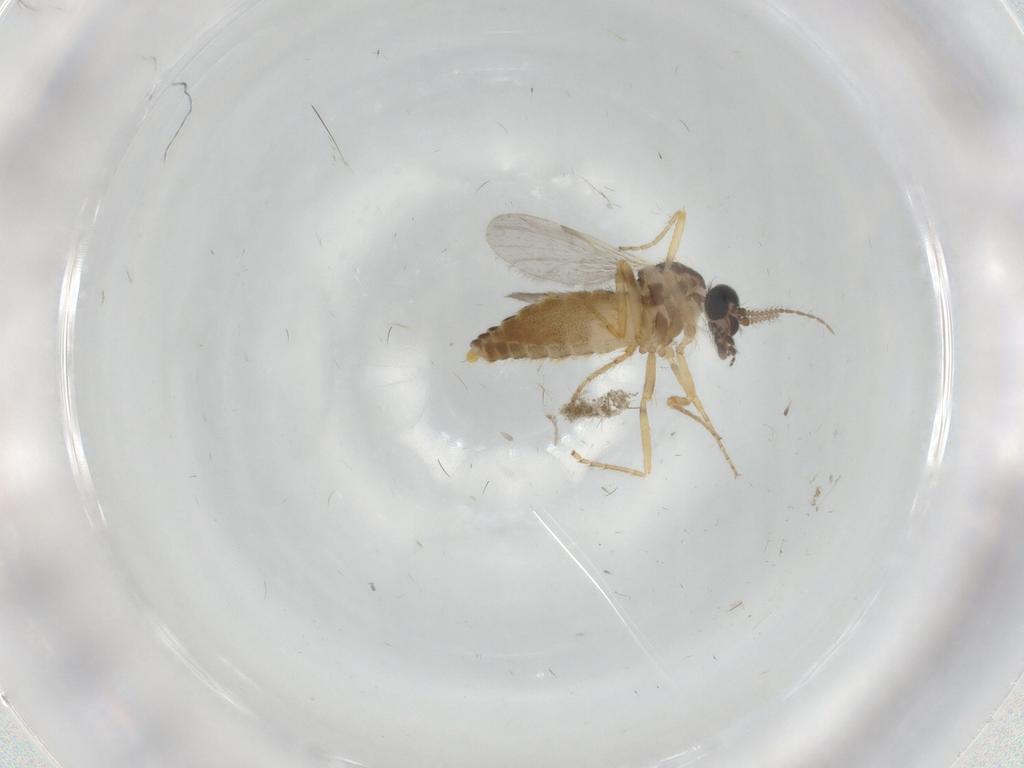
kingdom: Animalia
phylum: Arthropoda
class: Insecta
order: Diptera
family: Ceratopogonidae
